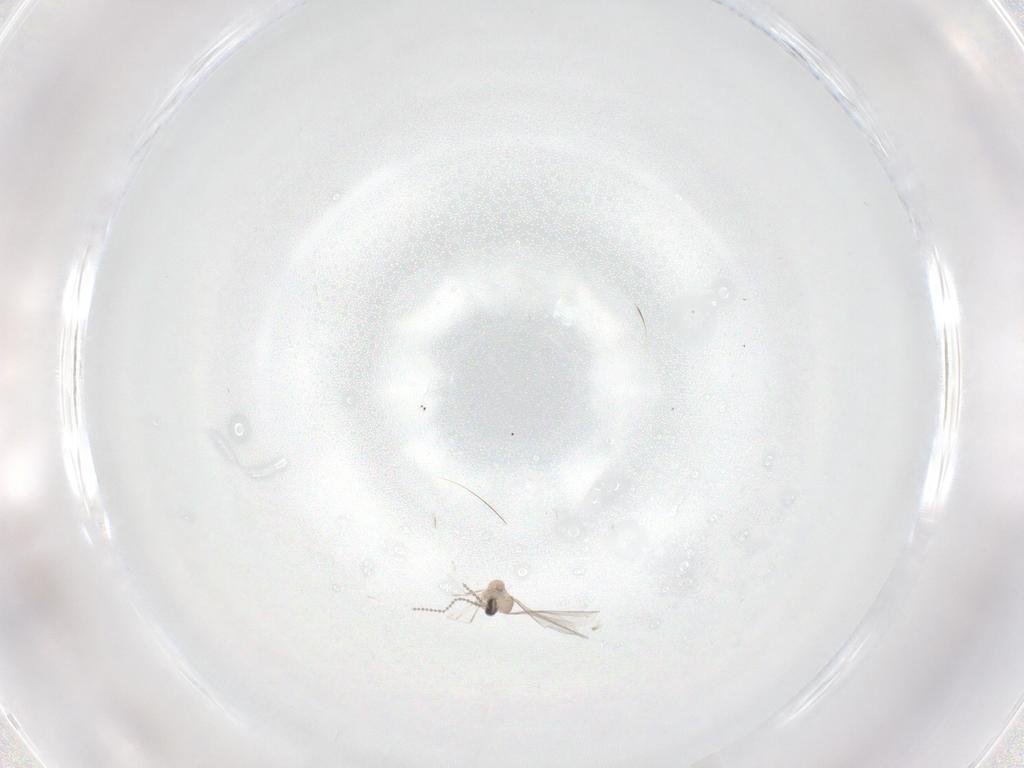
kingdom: Animalia
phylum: Arthropoda
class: Insecta
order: Diptera
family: Cecidomyiidae
